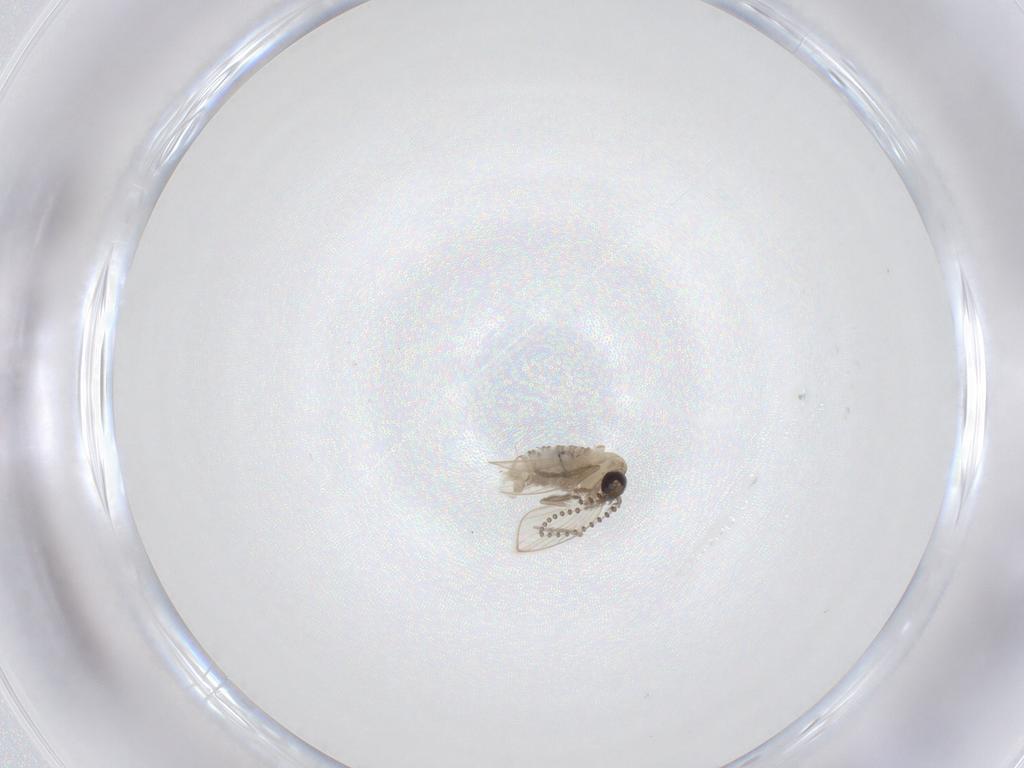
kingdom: Animalia
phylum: Arthropoda
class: Insecta
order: Diptera
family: Psychodidae
